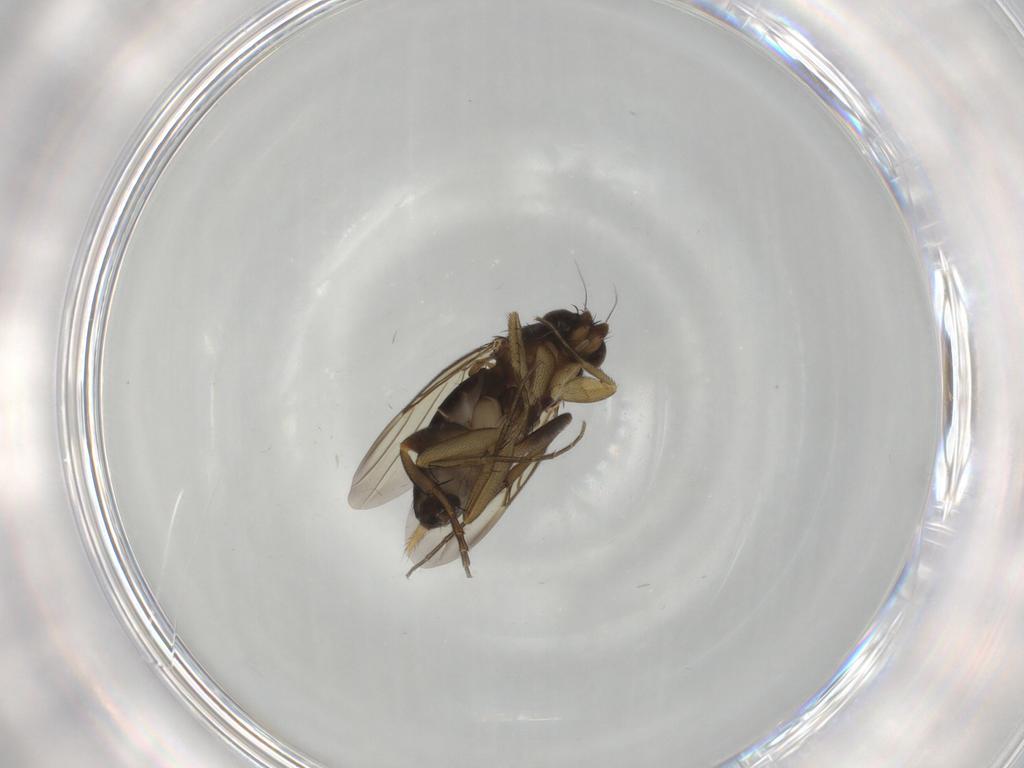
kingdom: Animalia
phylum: Arthropoda
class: Insecta
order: Diptera
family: Phoridae
